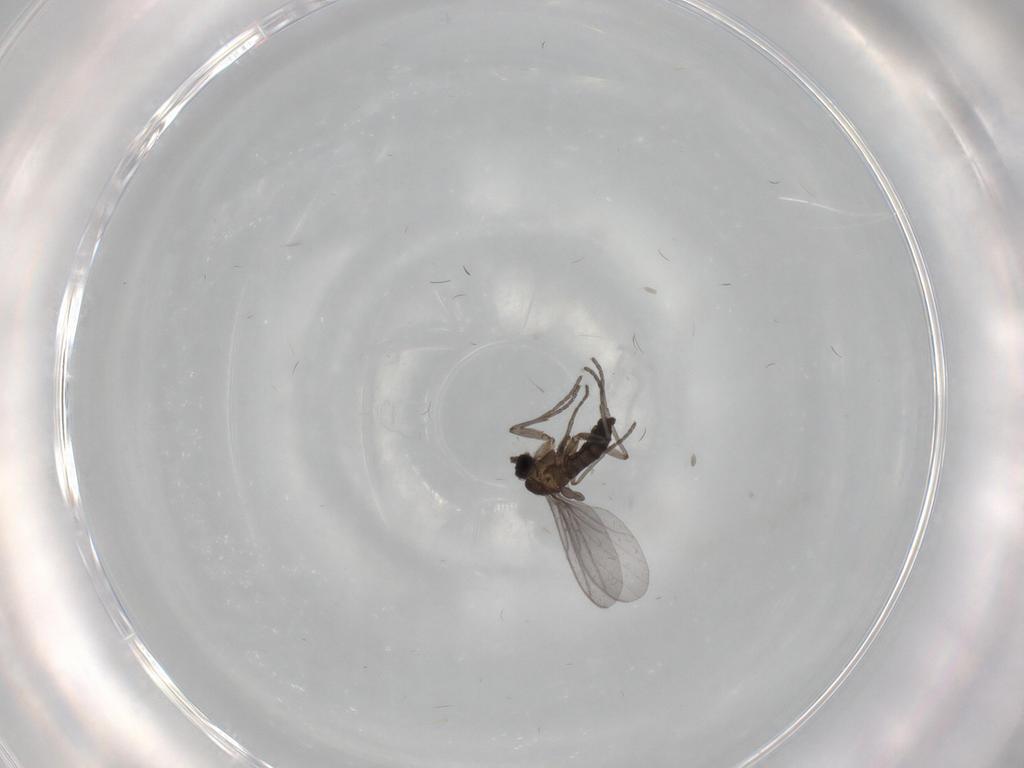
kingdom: Animalia
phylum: Arthropoda
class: Insecta
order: Diptera
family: Sciaridae
